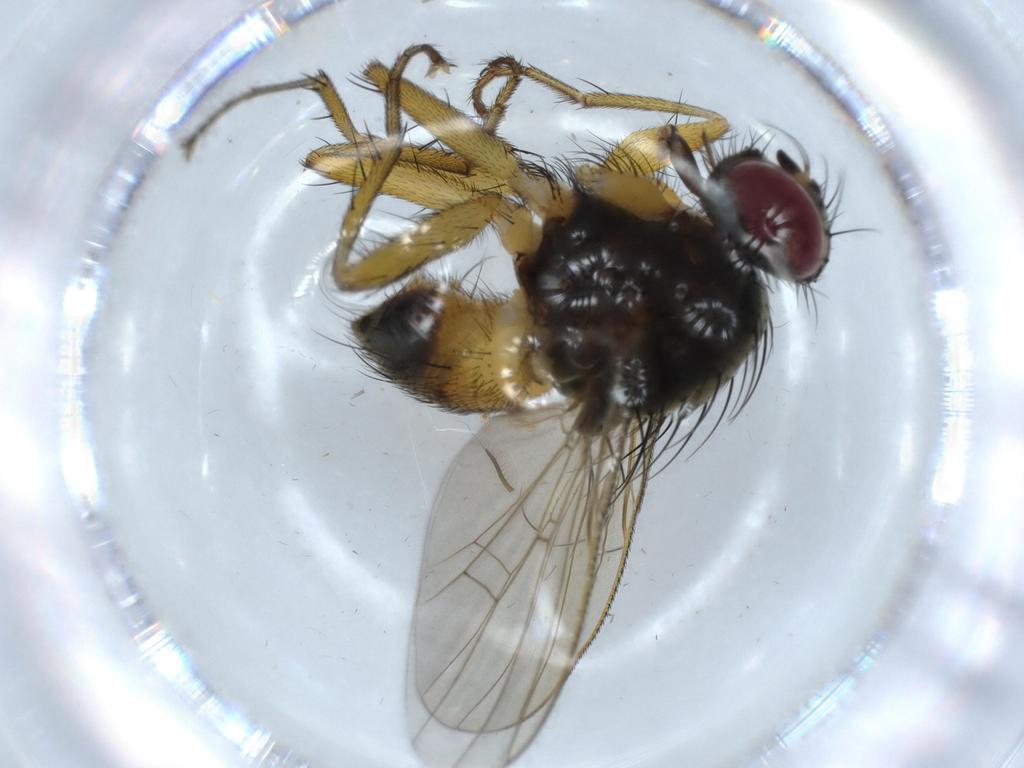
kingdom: Animalia
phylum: Arthropoda
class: Insecta
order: Diptera
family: Muscidae
